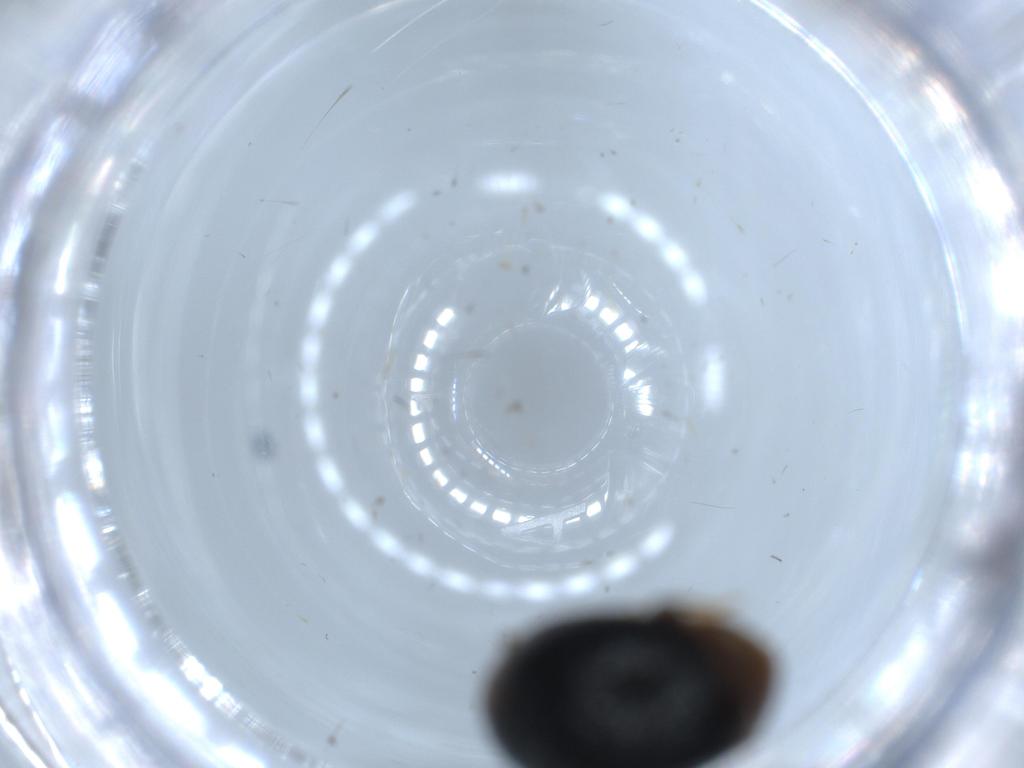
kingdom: Animalia
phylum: Arthropoda
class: Insecta
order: Coleoptera
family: Coccinellidae
